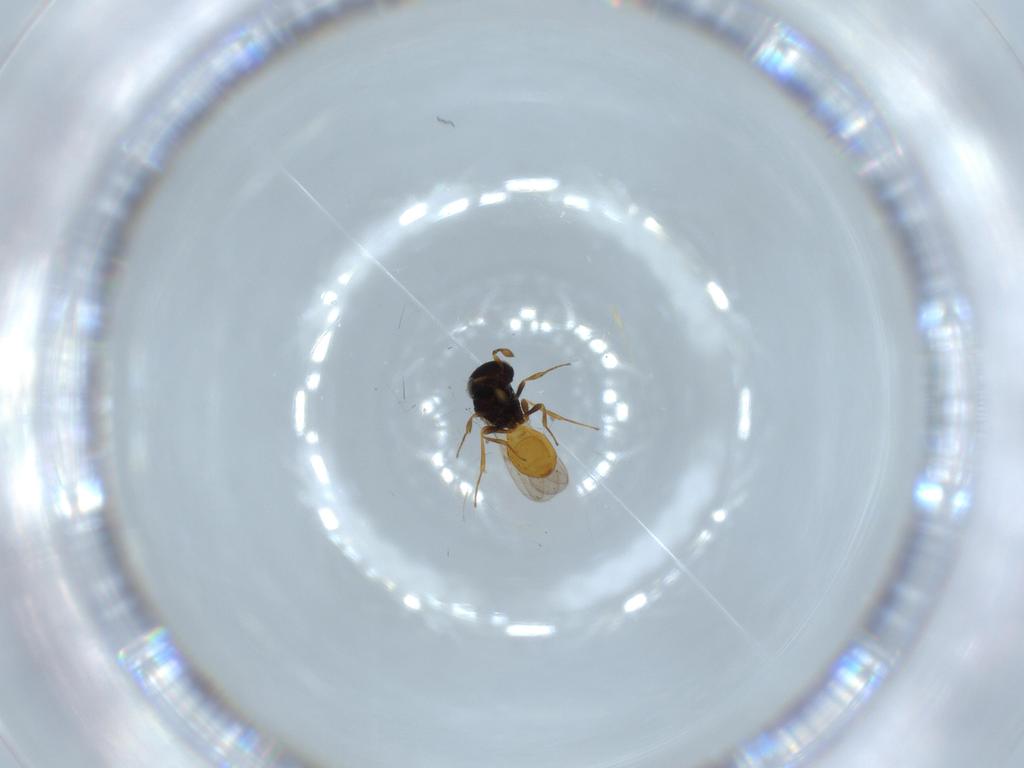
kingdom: Animalia
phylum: Arthropoda
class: Insecta
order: Hymenoptera
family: Scelionidae
